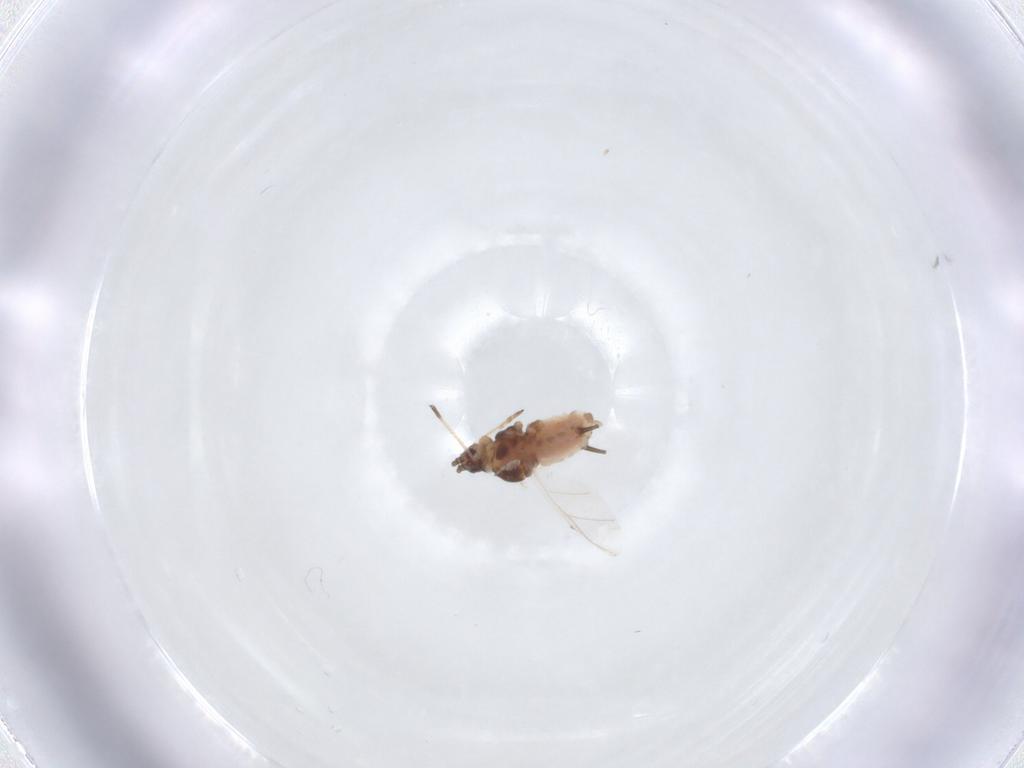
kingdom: Animalia
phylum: Arthropoda
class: Insecta
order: Hemiptera
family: Aphididae
